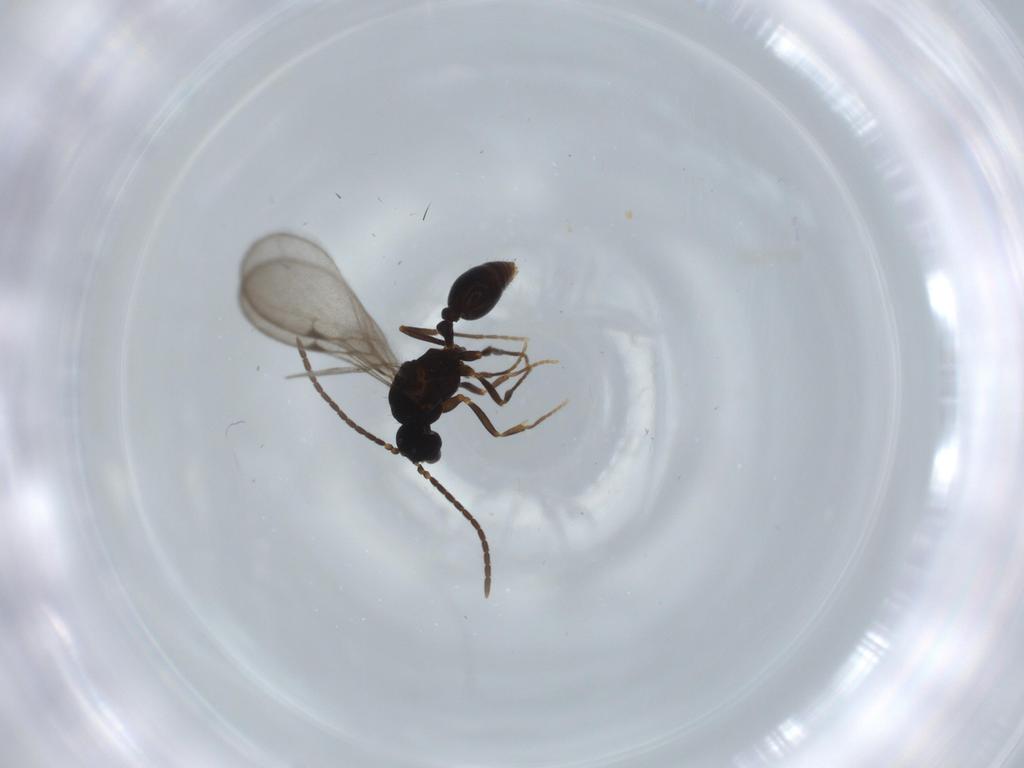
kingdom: Animalia
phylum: Arthropoda
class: Insecta
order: Hymenoptera
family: Formicidae
